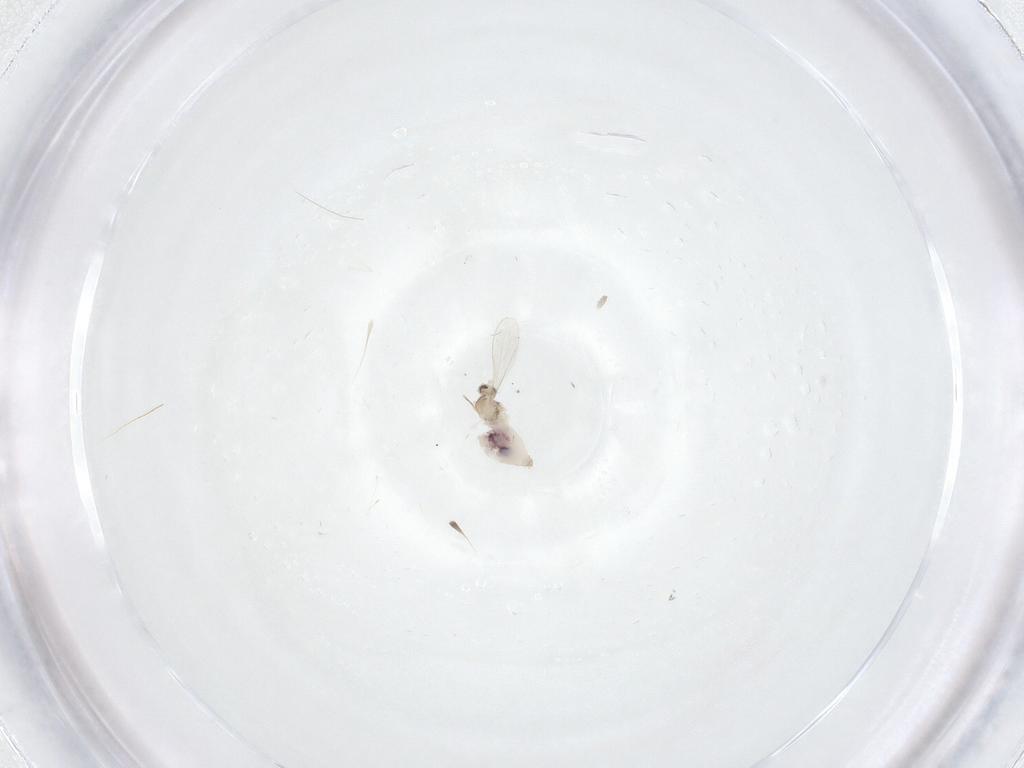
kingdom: Animalia
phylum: Arthropoda
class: Insecta
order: Diptera
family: Cecidomyiidae
